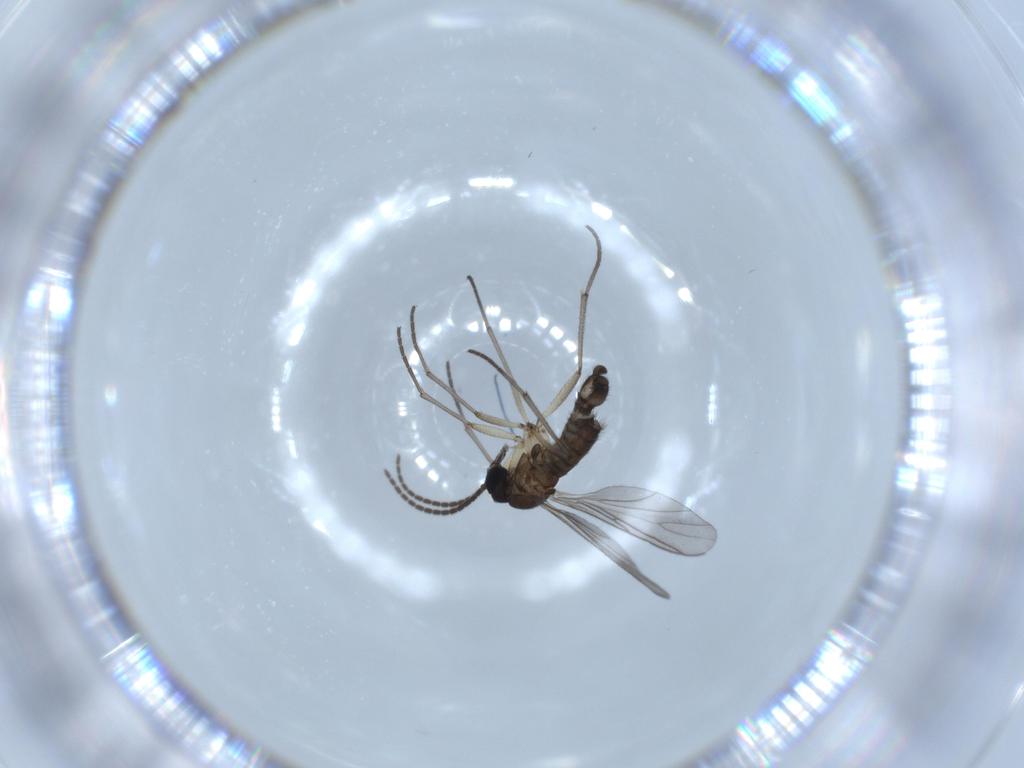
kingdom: Animalia
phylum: Arthropoda
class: Insecta
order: Diptera
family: Sciaridae
